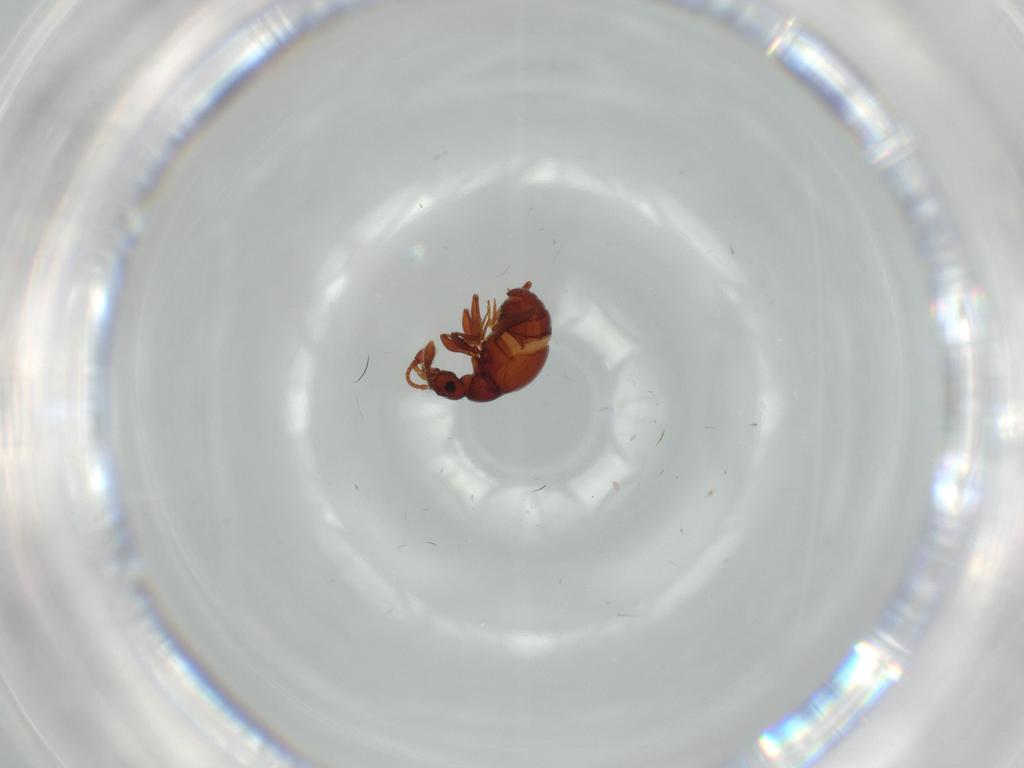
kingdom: Animalia
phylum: Arthropoda
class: Insecta
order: Coleoptera
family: Staphylinidae
